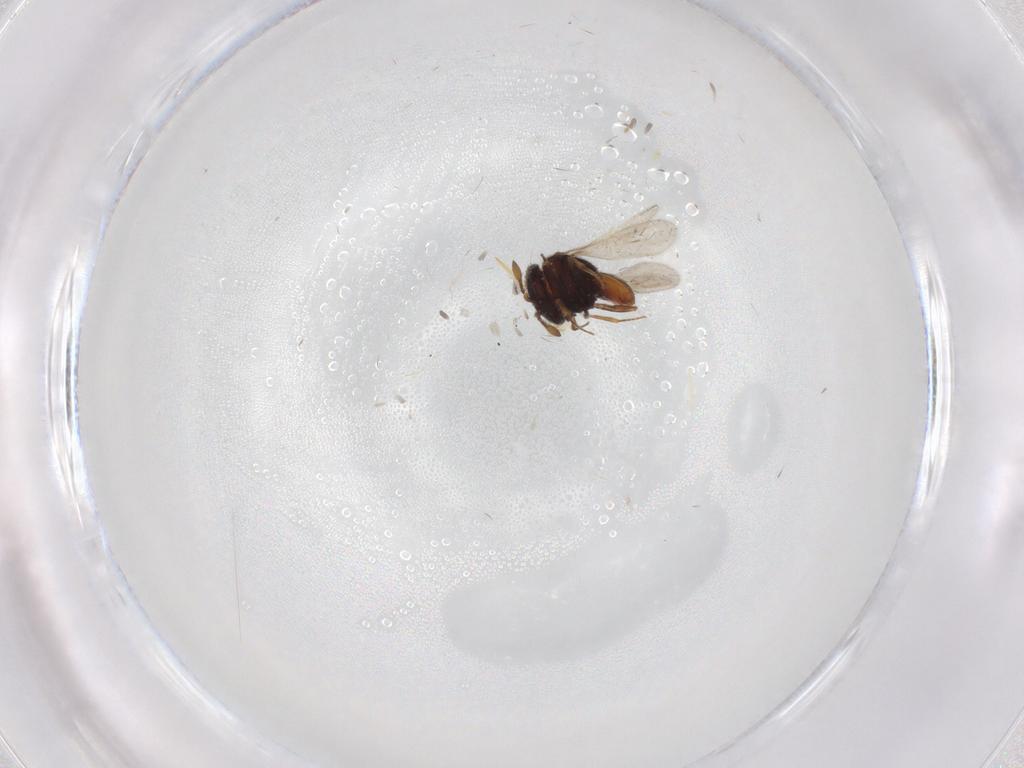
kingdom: Animalia
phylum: Arthropoda
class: Insecta
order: Hymenoptera
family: Scelionidae
